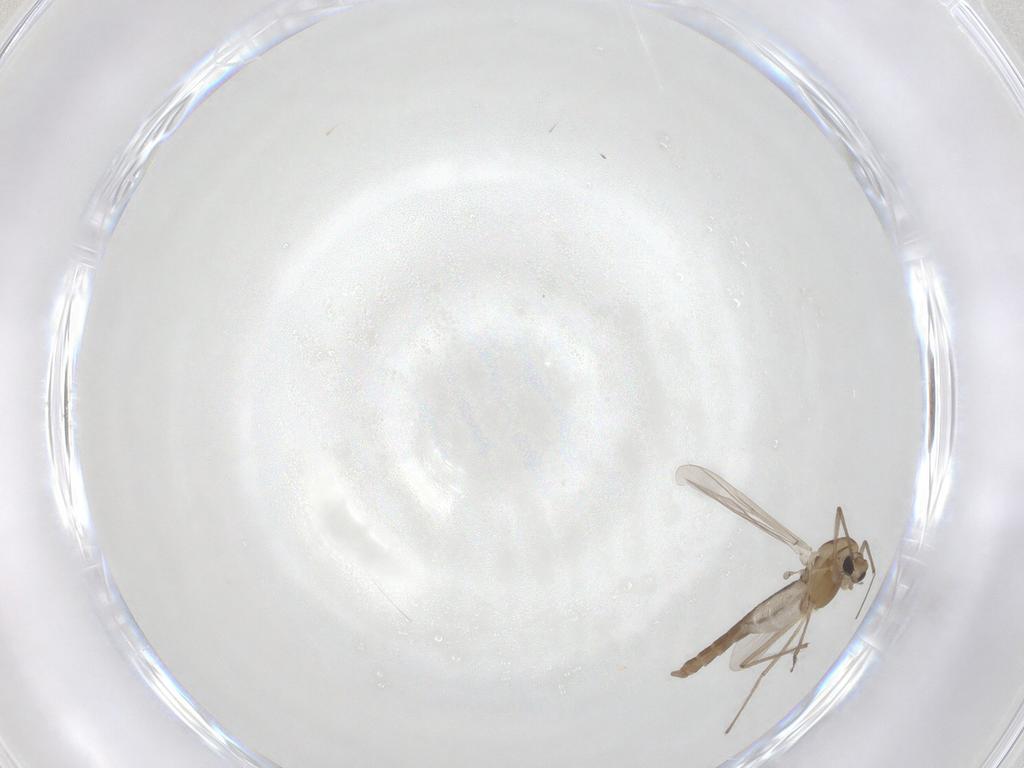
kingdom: Animalia
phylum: Arthropoda
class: Insecta
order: Diptera
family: Chironomidae
